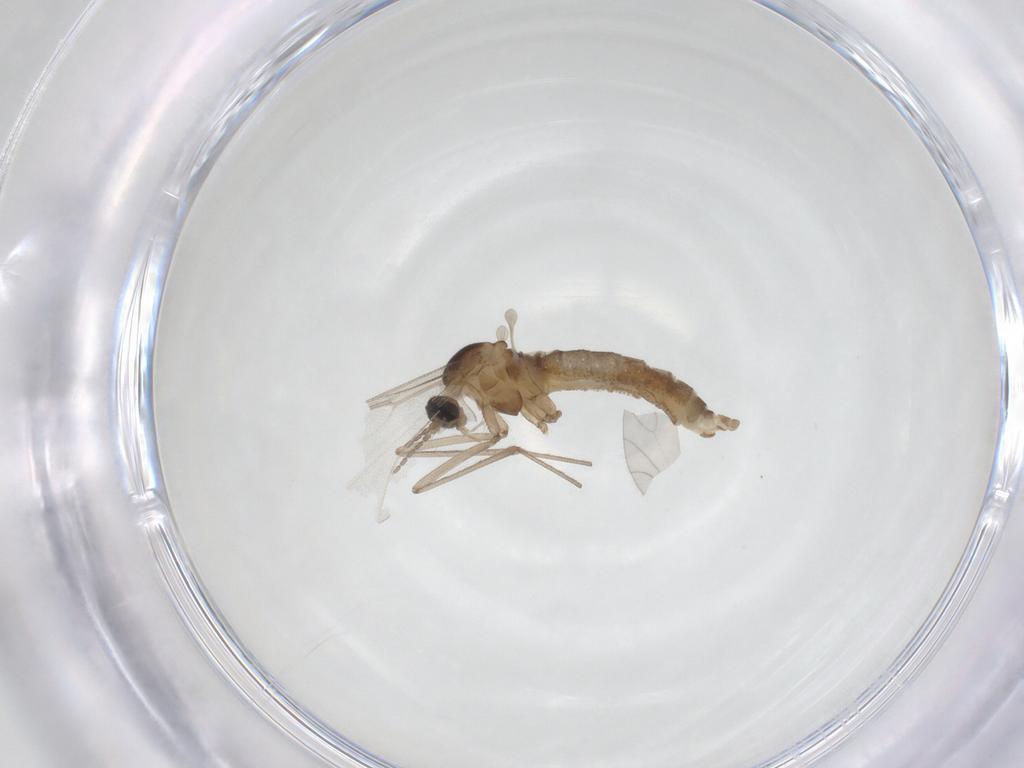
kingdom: Animalia
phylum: Arthropoda
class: Insecta
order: Diptera
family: Cecidomyiidae
